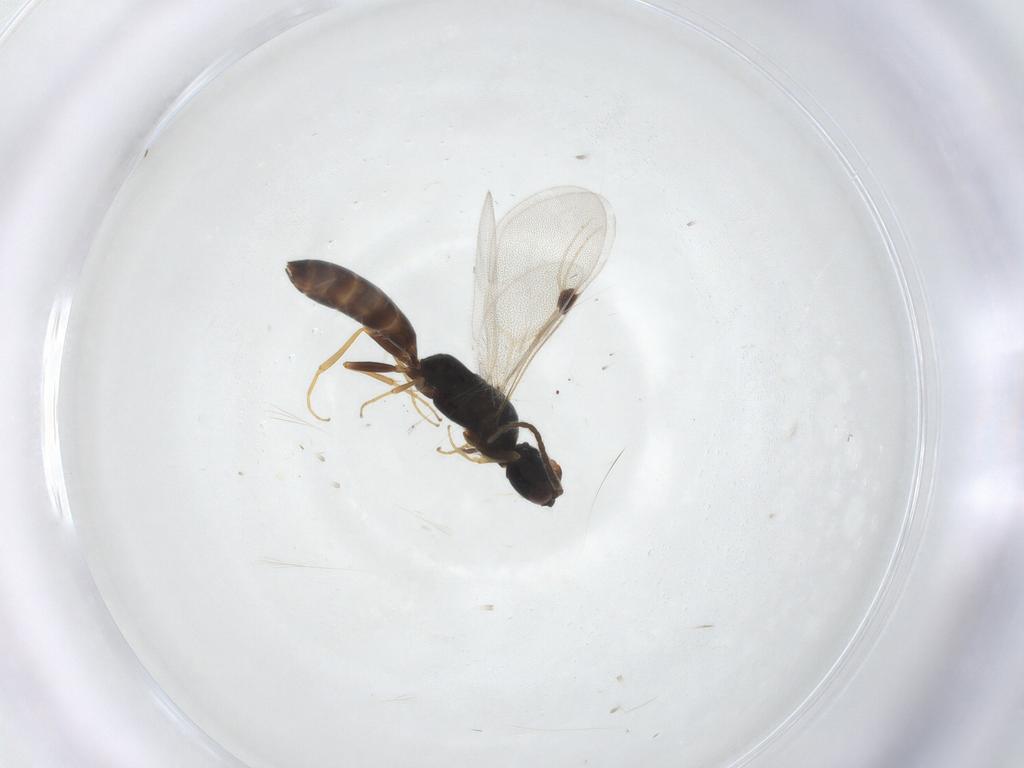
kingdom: Animalia
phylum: Arthropoda
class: Insecta
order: Hymenoptera
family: Bethylidae
